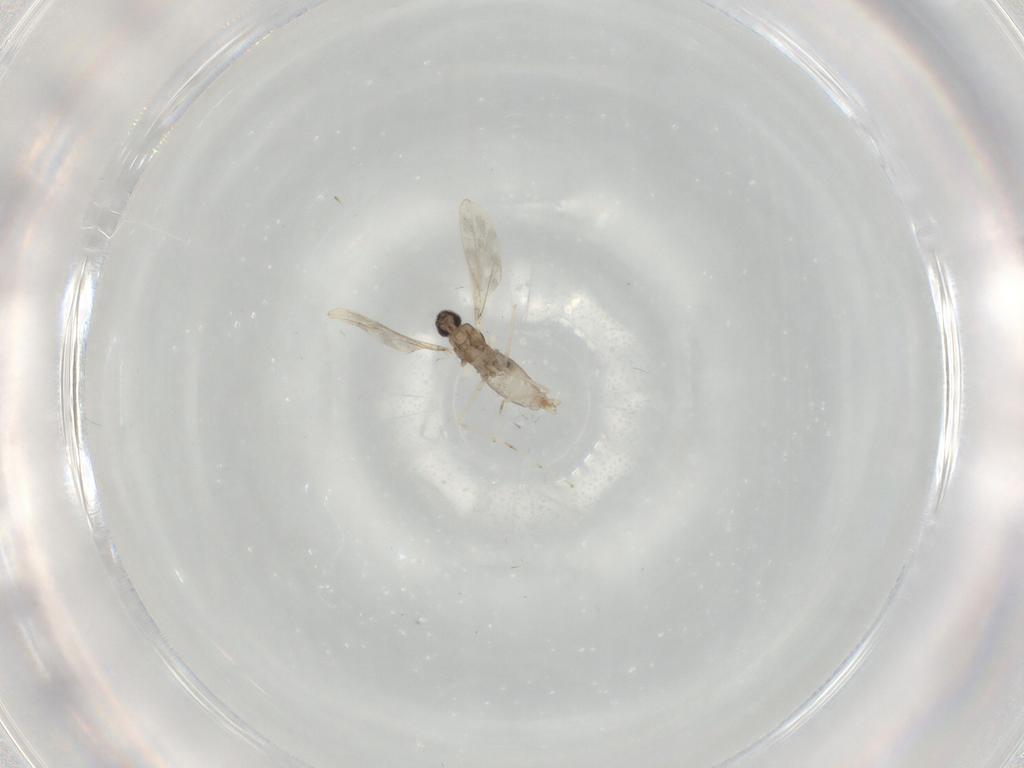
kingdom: Animalia
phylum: Arthropoda
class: Insecta
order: Diptera
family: Cecidomyiidae
